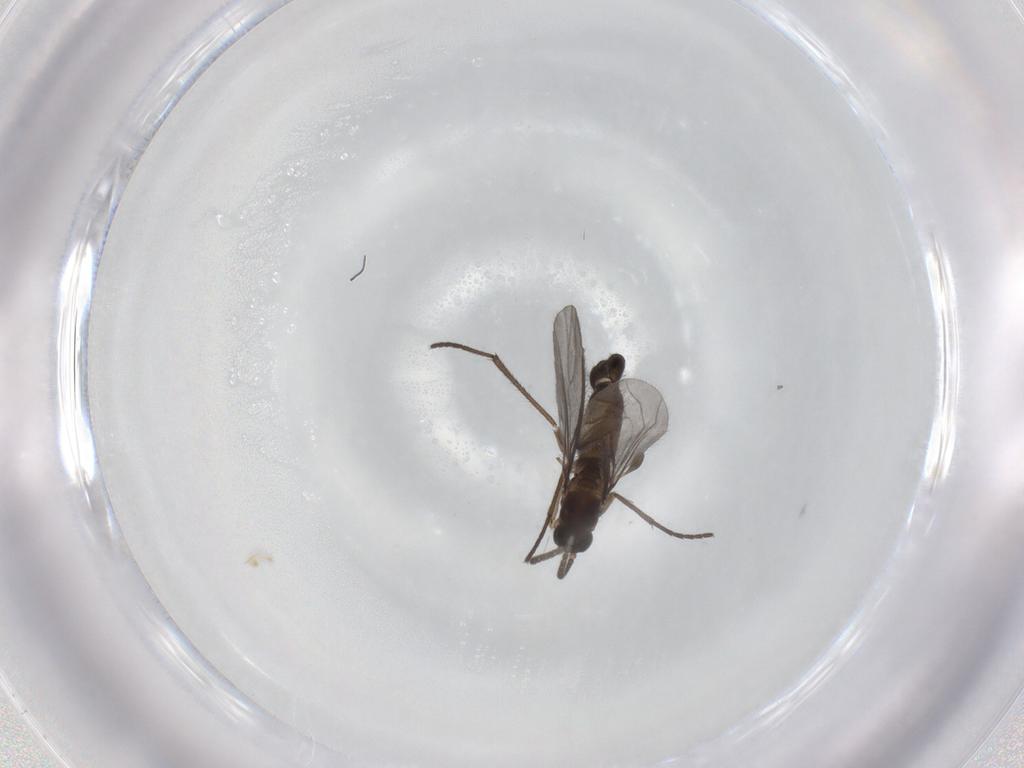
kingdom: Animalia
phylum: Arthropoda
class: Insecta
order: Diptera
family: Sciaridae
